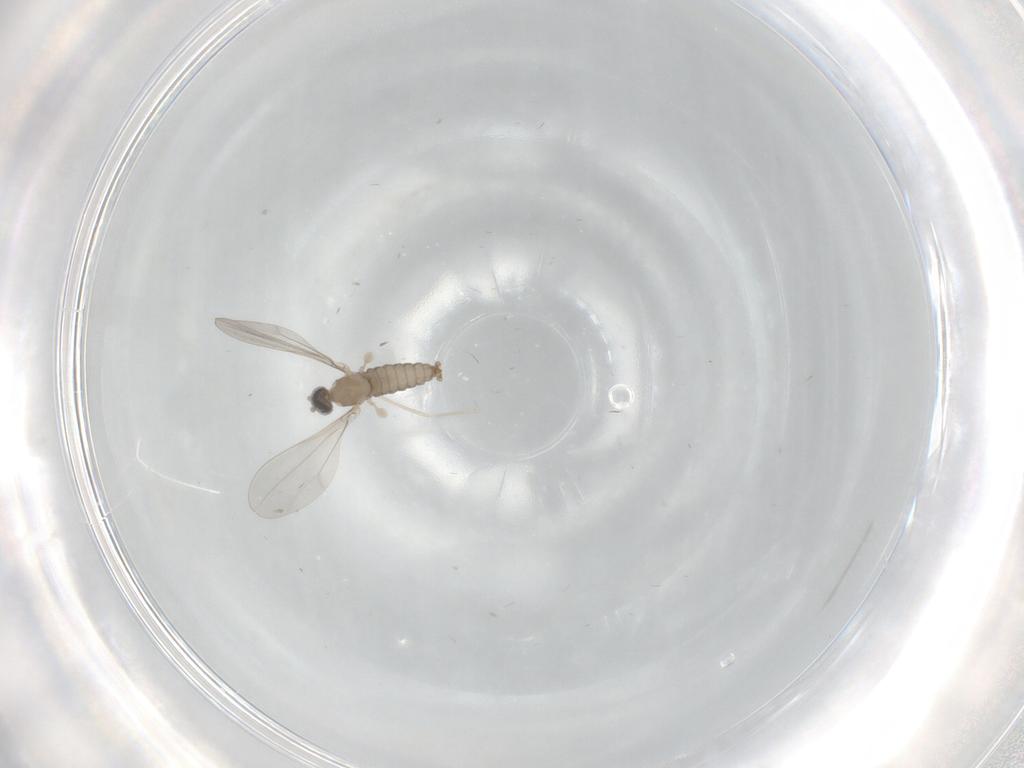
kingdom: Animalia
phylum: Arthropoda
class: Insecta
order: Diptera
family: Cecidomyiidae
